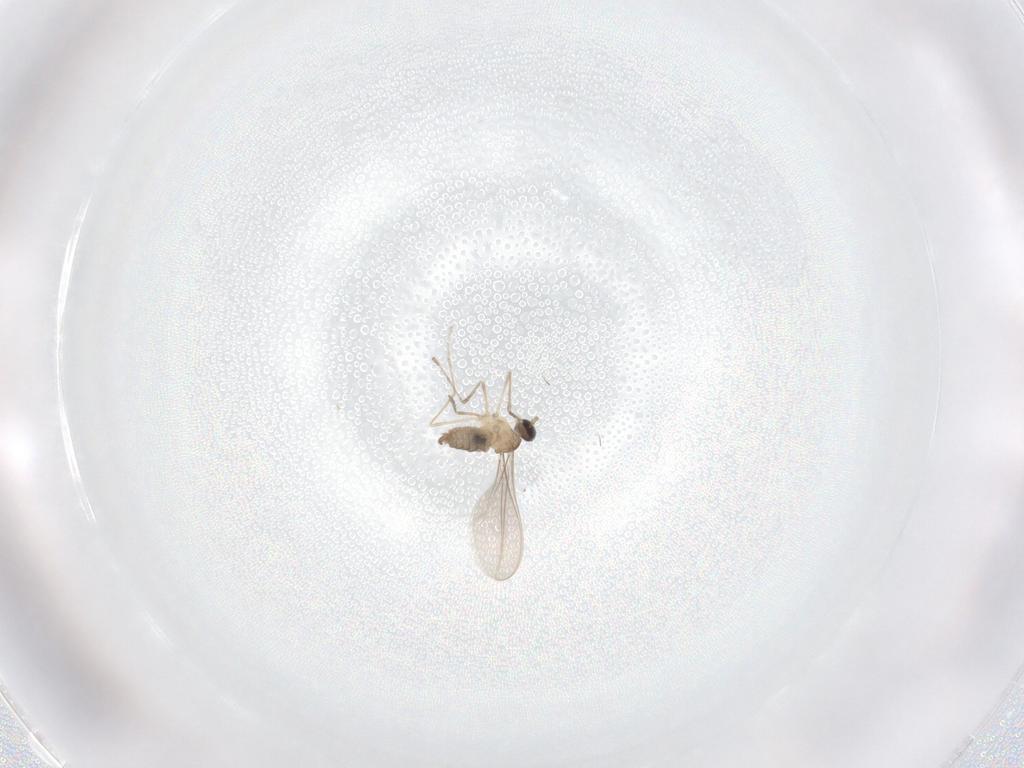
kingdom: Animalia
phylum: Arthropoda
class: Insecta
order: Diptera
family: Cecidomyiidae
